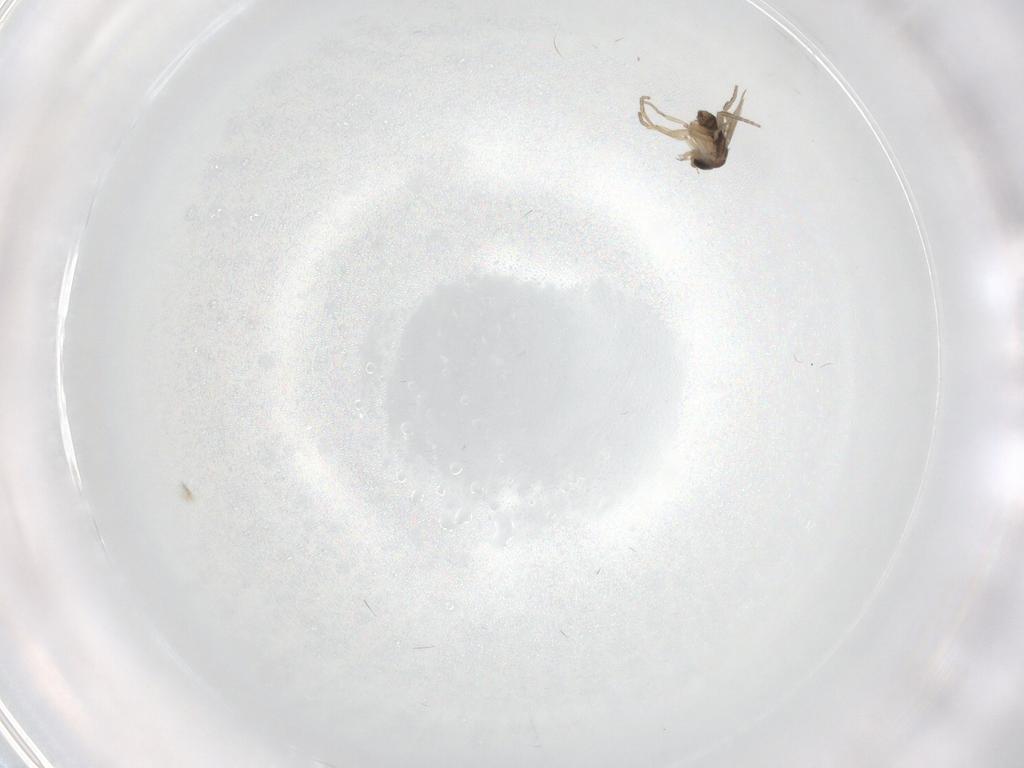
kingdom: Animalia
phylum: Arthropoda
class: Insecta
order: Diptera
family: Phoridae
